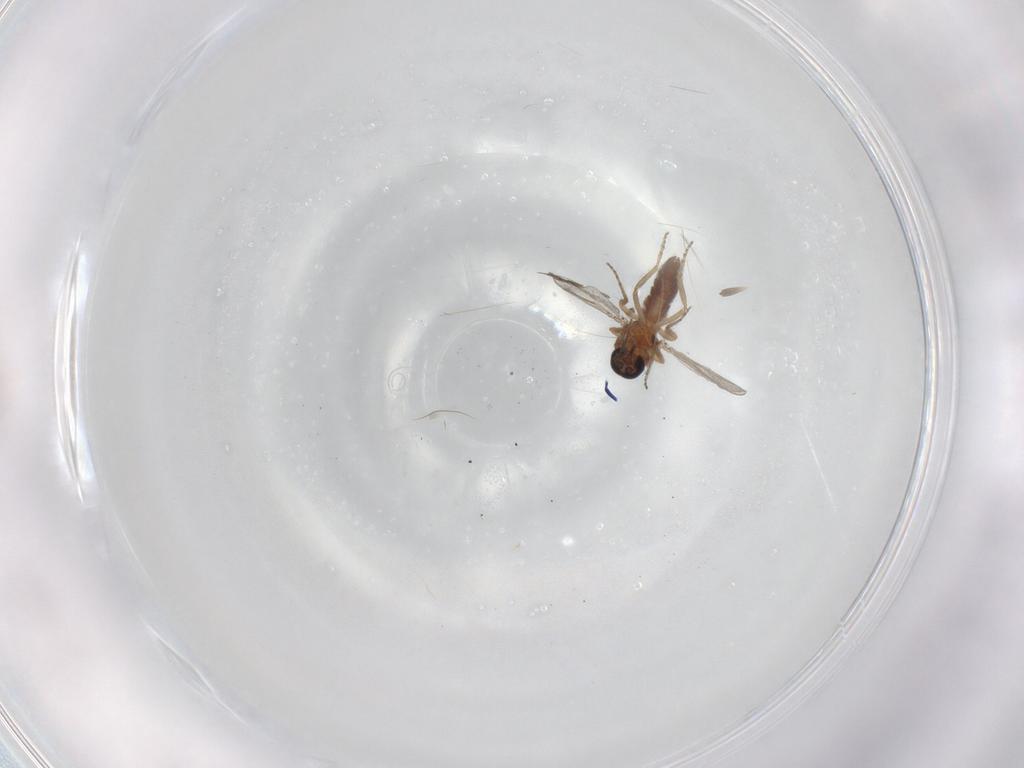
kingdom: Animalia
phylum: Arthropoda
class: Insecta
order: Diptera
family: Chironomidae
